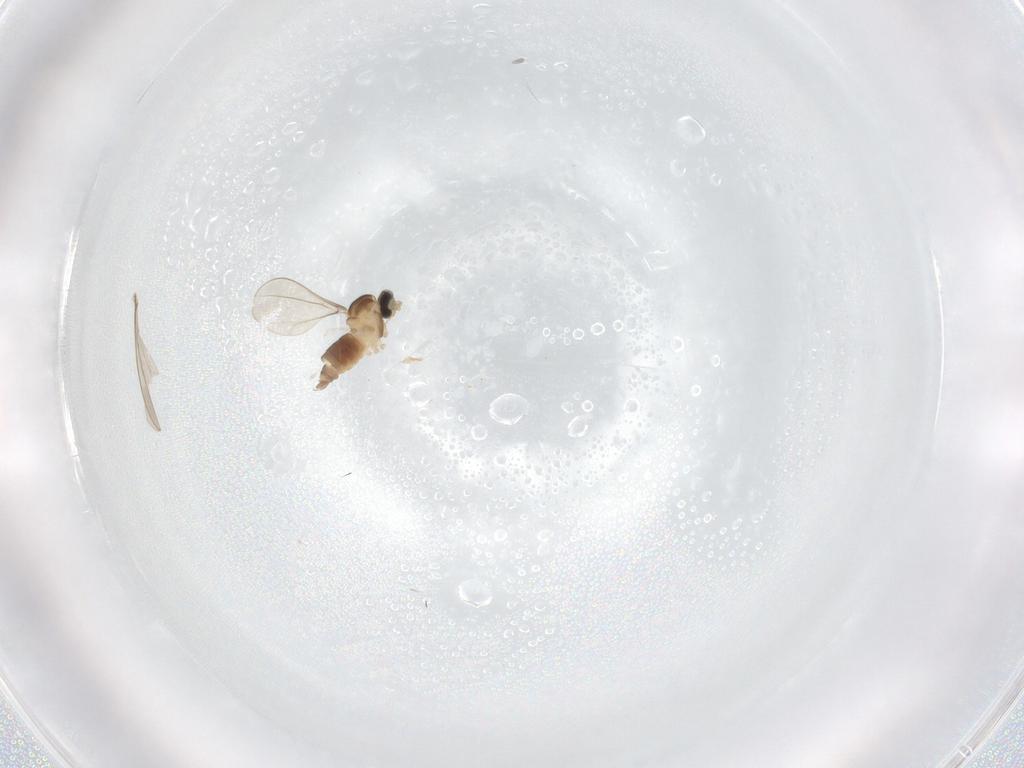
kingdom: Animalia
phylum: Arthropoda
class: Insecta
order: Diptera
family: Cecidomyiidae
